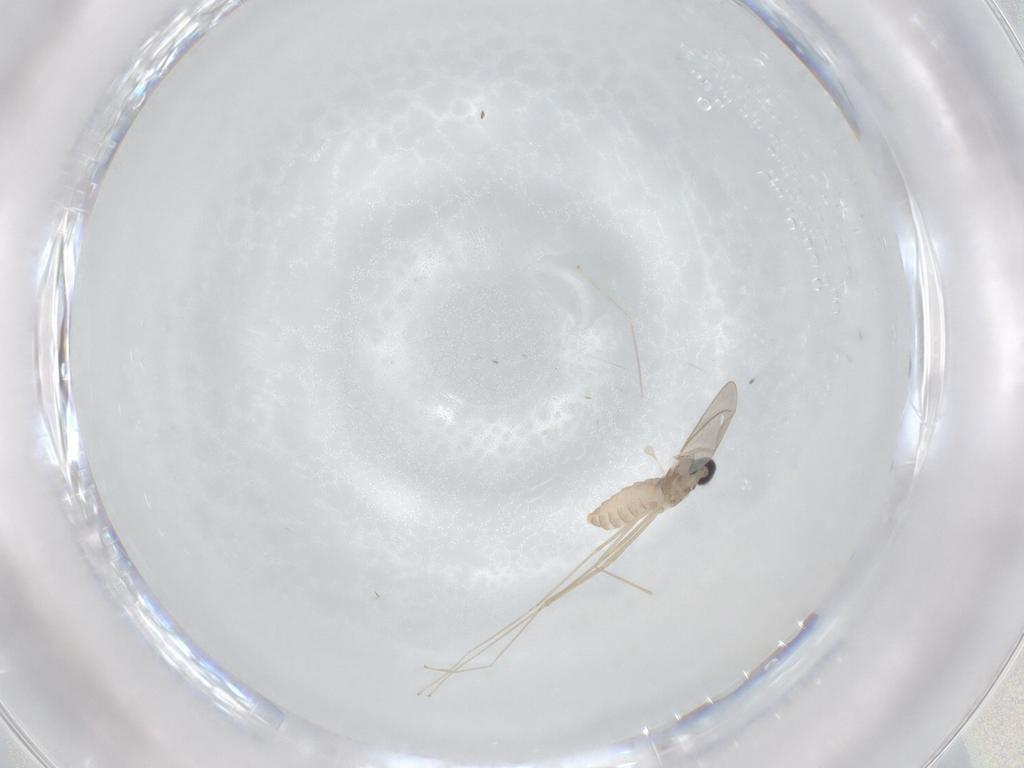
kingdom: Animalia
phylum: Arthropoda
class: Insecta
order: Diptera
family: Cecidomyiidae
